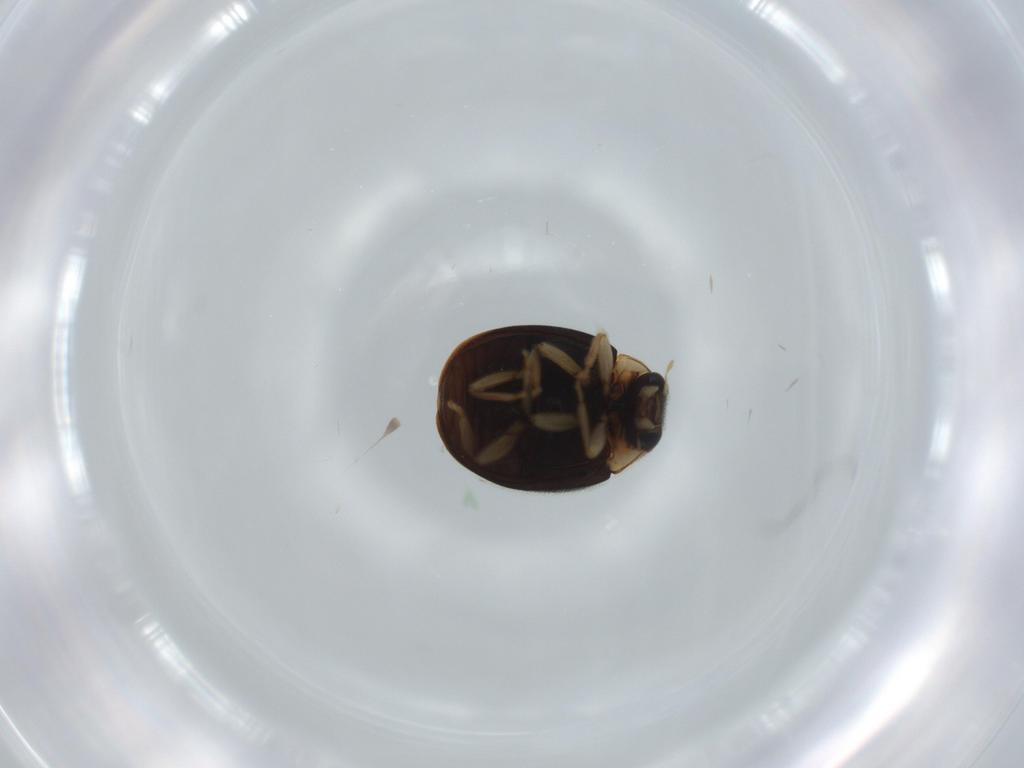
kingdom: Animalia
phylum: Arthropoda
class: Insecta
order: Coleoptera
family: Coccinellidae
